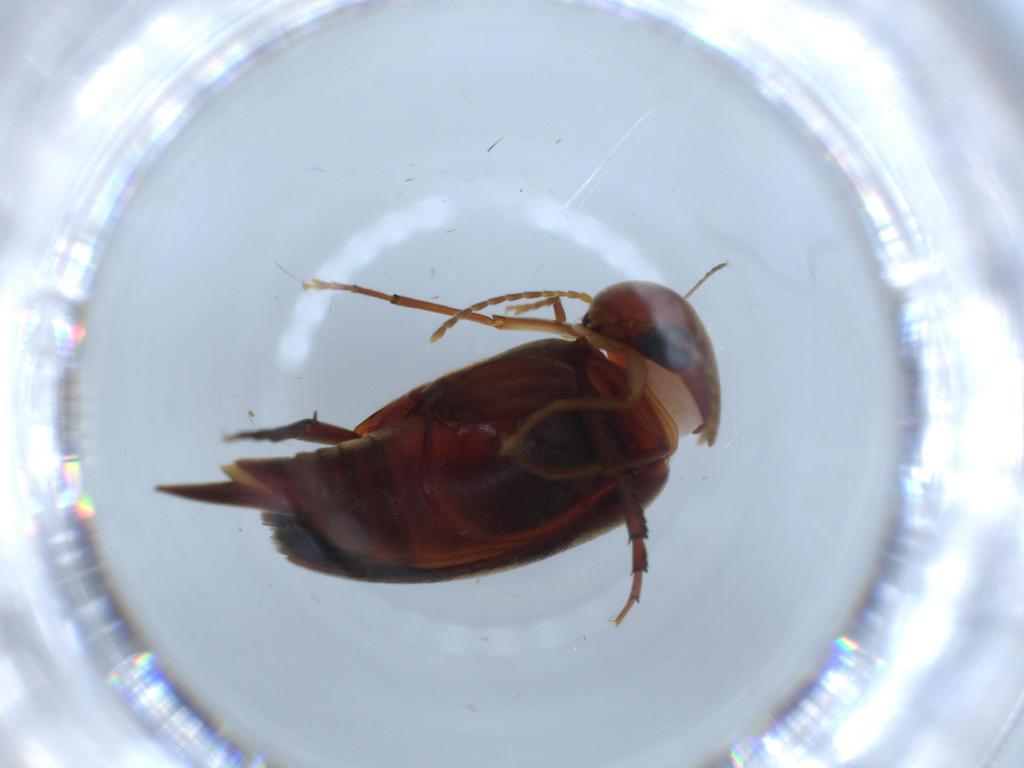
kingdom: Animalia
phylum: Arthropoda
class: Insecta
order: Coleoptera
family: Mordellidae
